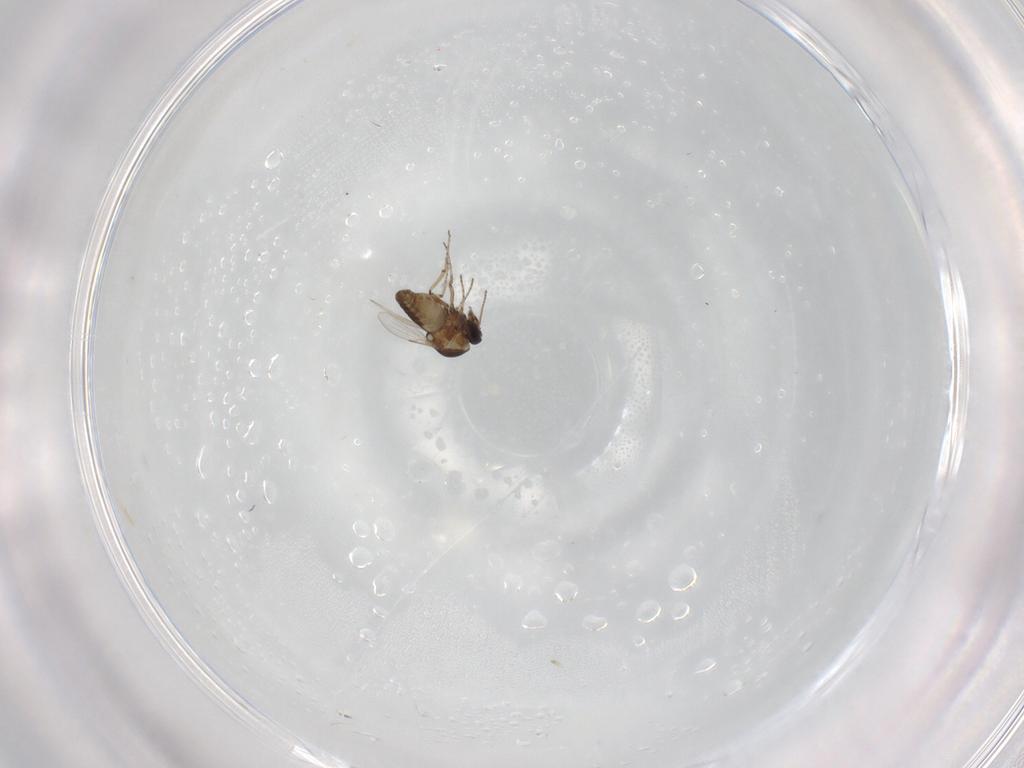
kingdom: Animalia
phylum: Arthropoda
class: Insecta
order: Diptera
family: Ceratopogonidae
